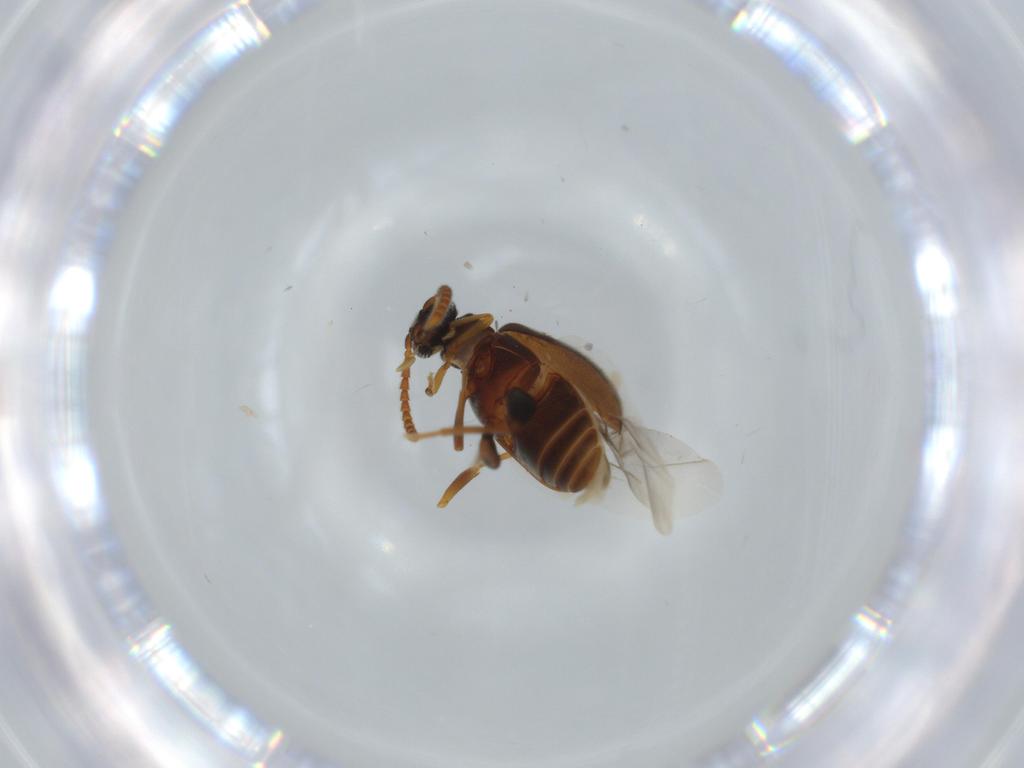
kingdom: Animalia
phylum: Arthropoda
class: Insecta
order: Coleoptera
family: Aderidae
